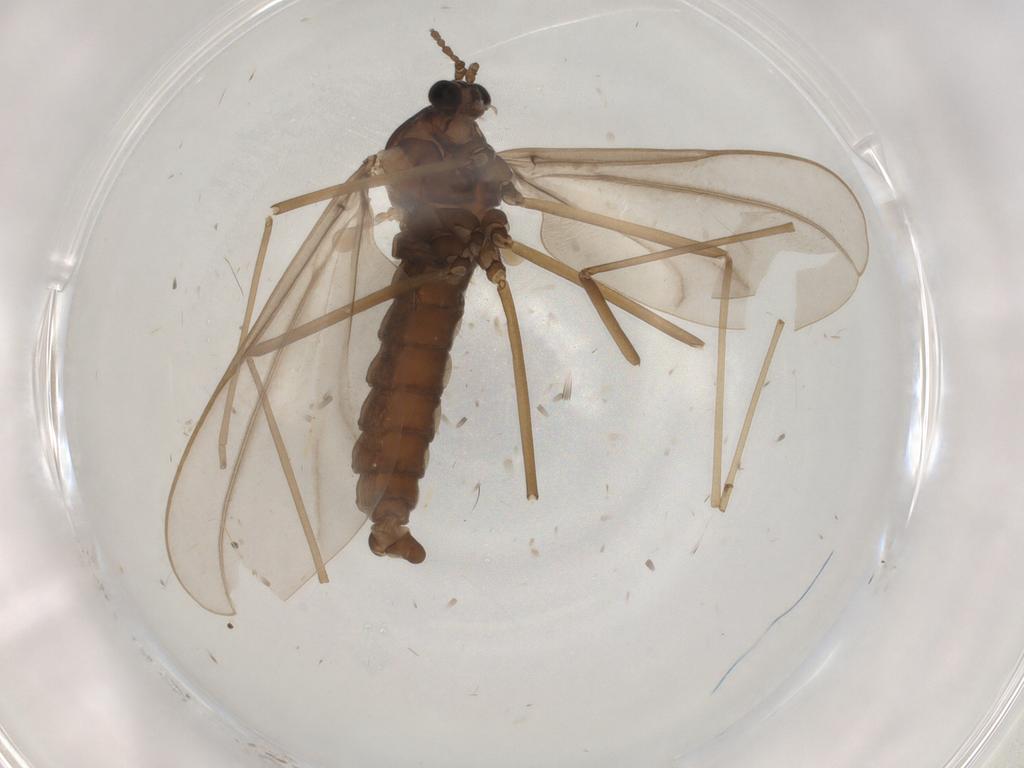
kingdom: Animalia
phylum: Arthropoda
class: Insecta
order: Diptera
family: Cecidomyiidae
